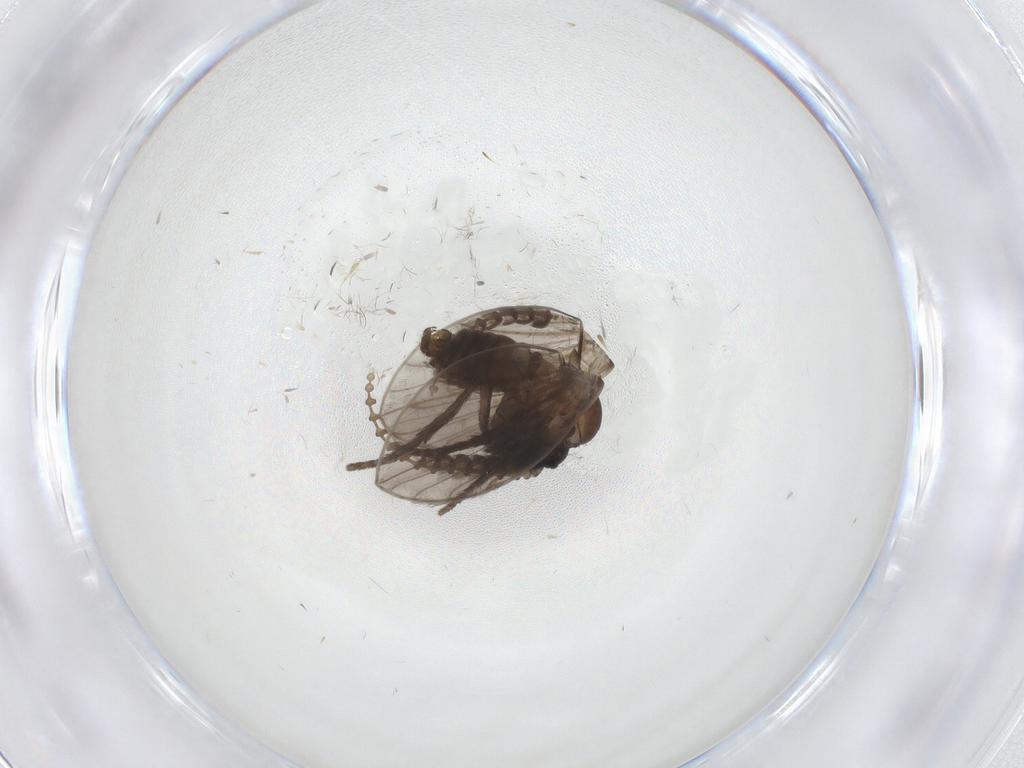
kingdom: Animalia
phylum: Arthropoda
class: Insecta
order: Diptera
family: Psychodidae
